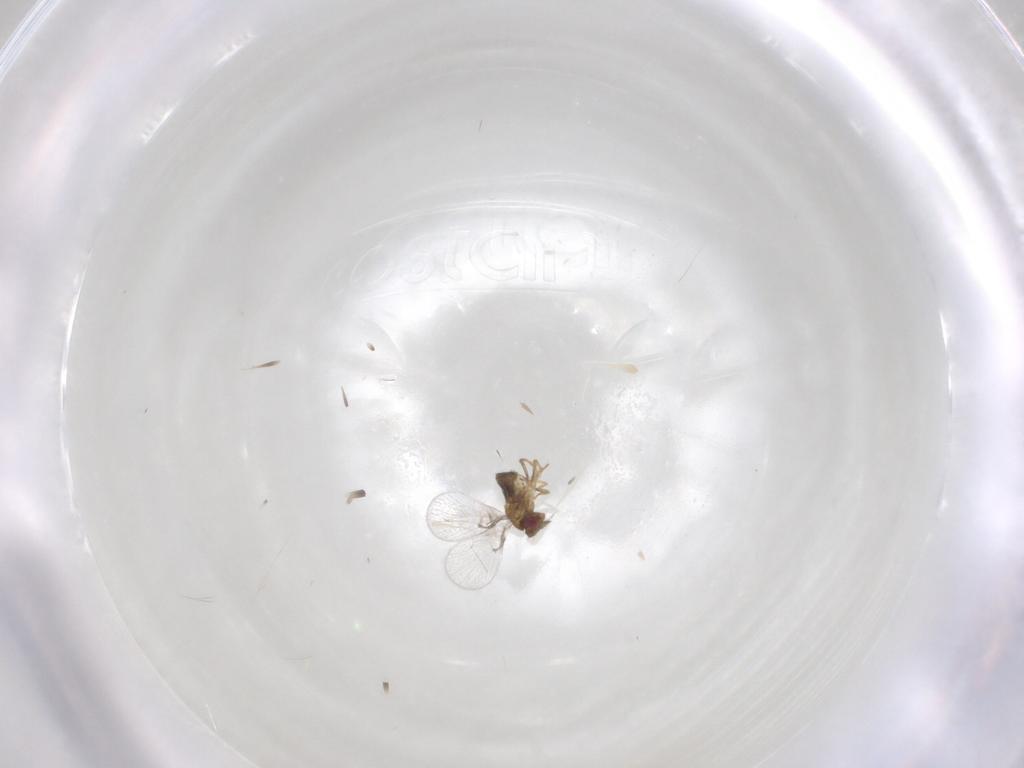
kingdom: Animalia
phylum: Arthropoda
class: Insecta
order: Hymenoptera
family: Trichogrammatidae
